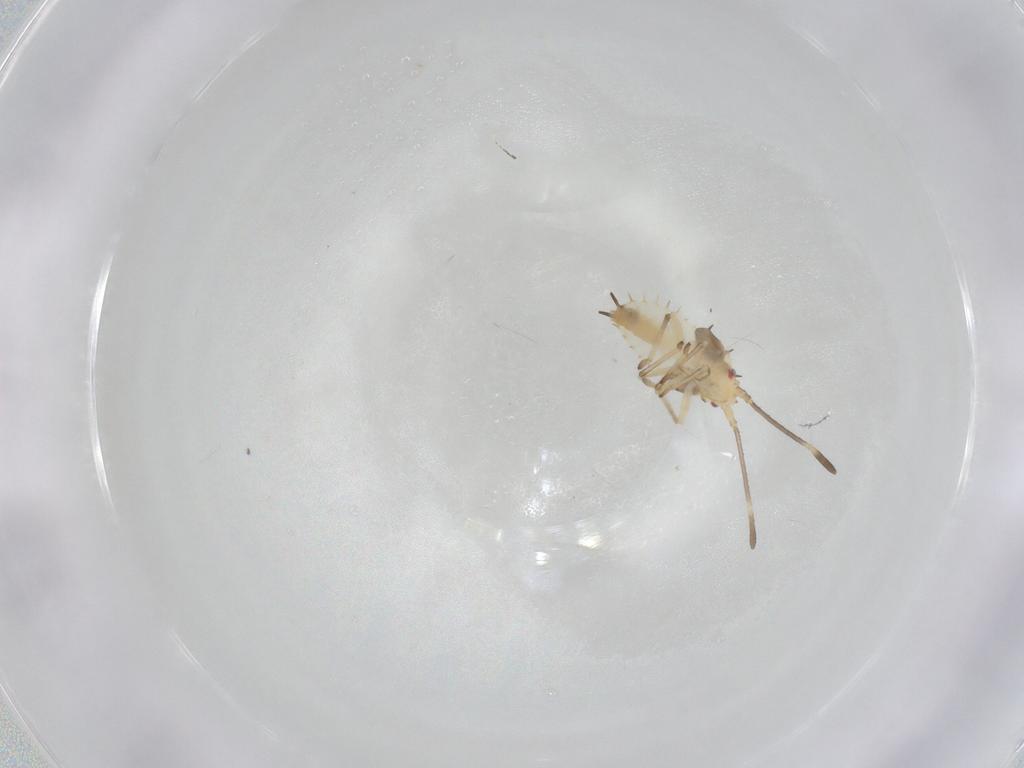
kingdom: Animalia
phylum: Arthropoda
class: Insecta
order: Hemiptera
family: Tingidae
